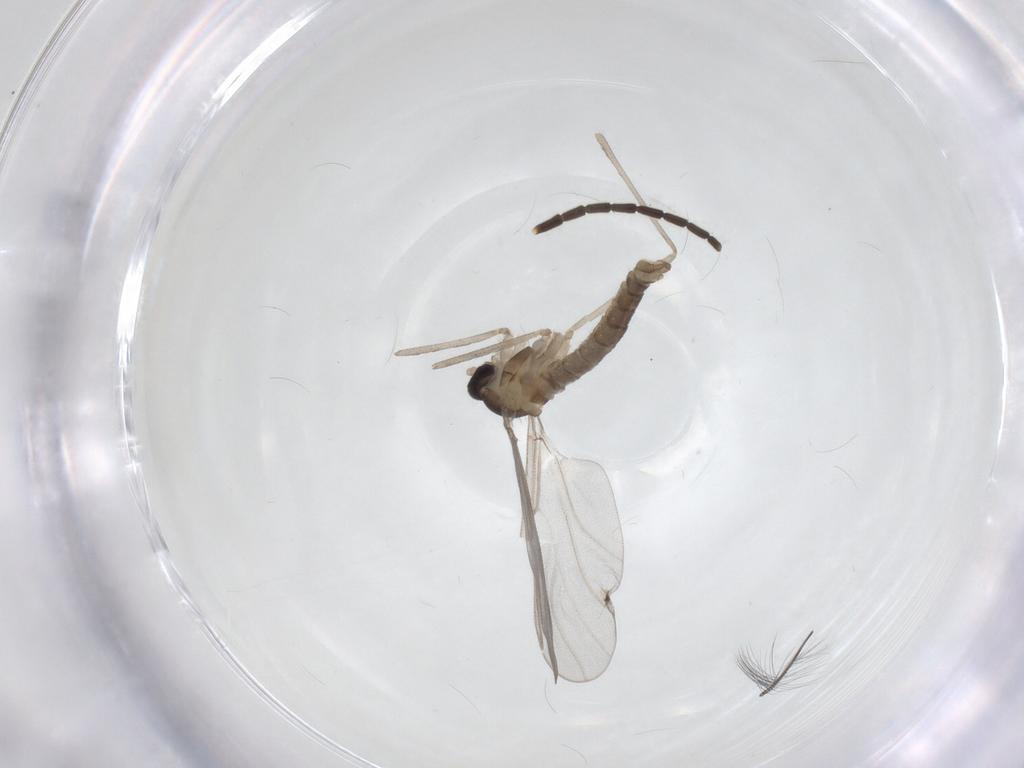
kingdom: Animalia
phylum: Arthropoda
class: Insecta
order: Diptera
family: Cecidomyiidae
